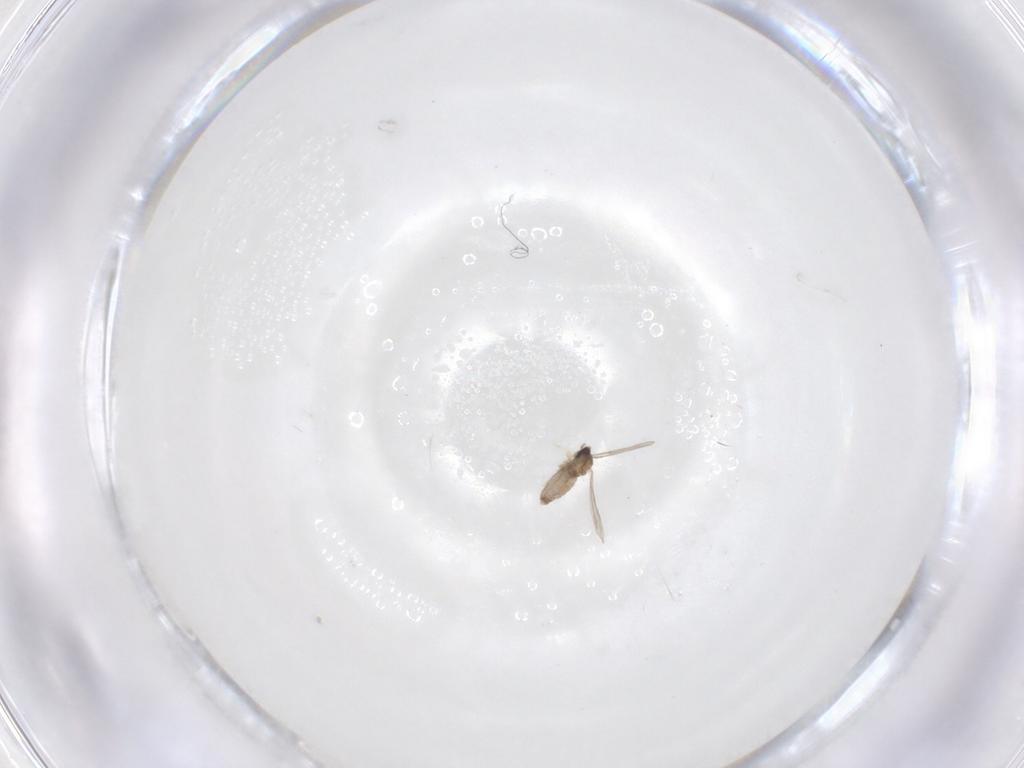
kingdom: Animalia
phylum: Arthropoda
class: Insecta
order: Diptera
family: Cecidomyiidae
